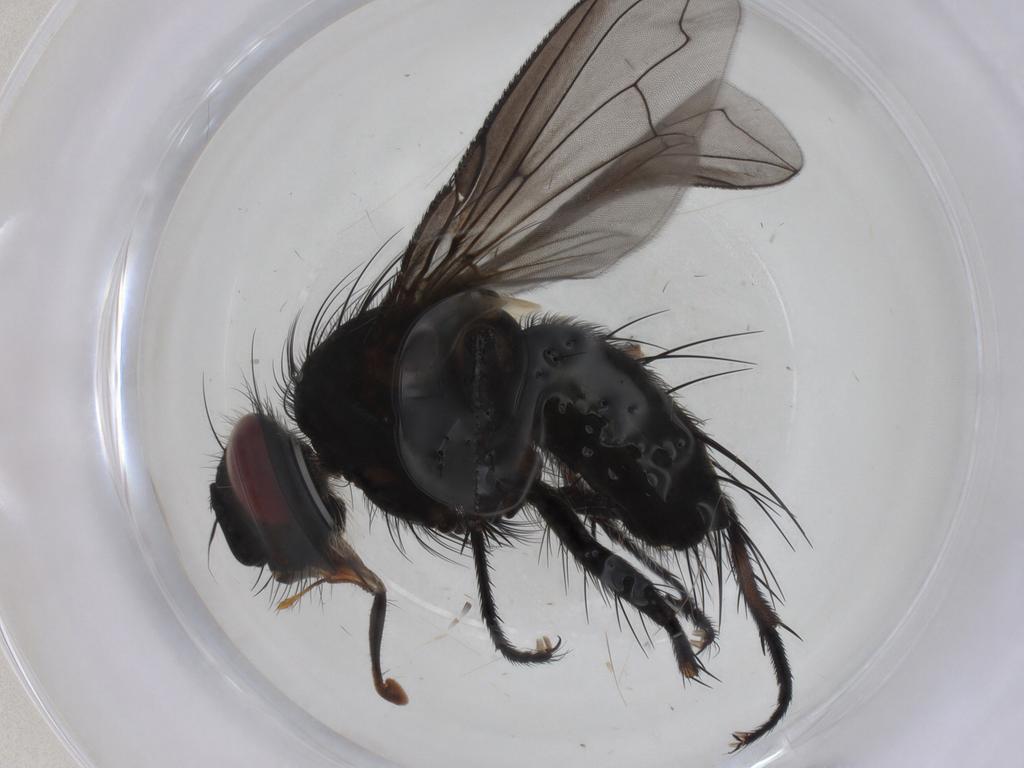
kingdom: Animalia
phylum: Arthropoda
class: Insecta
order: Diptera
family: Tachinidae
